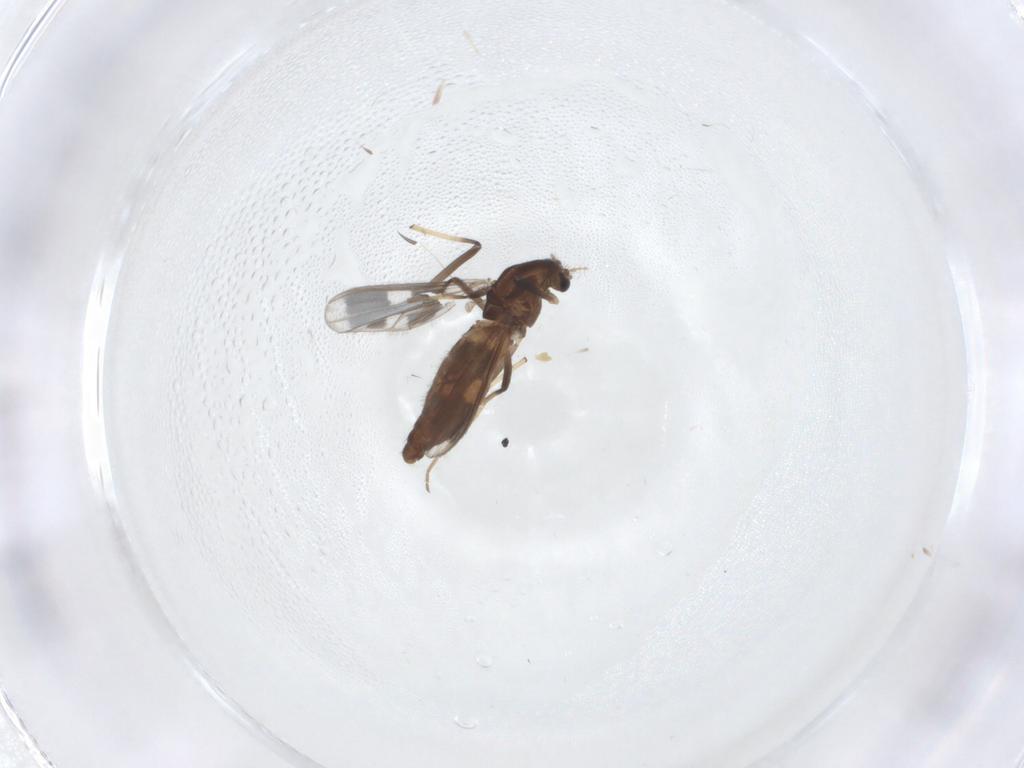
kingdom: Animalia
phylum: Arthropoda
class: Insecta
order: Diptera
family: Chironomidae
